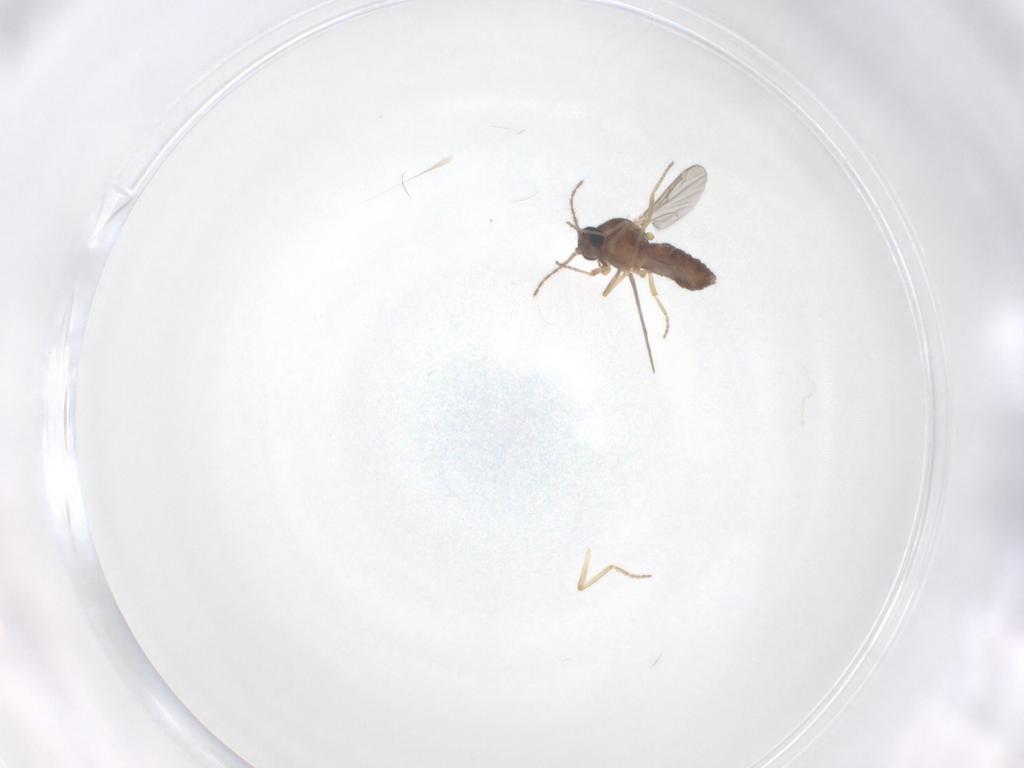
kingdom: Animalia
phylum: Arthropoda
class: Insecta
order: Diptera
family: Ceratopogonidae
